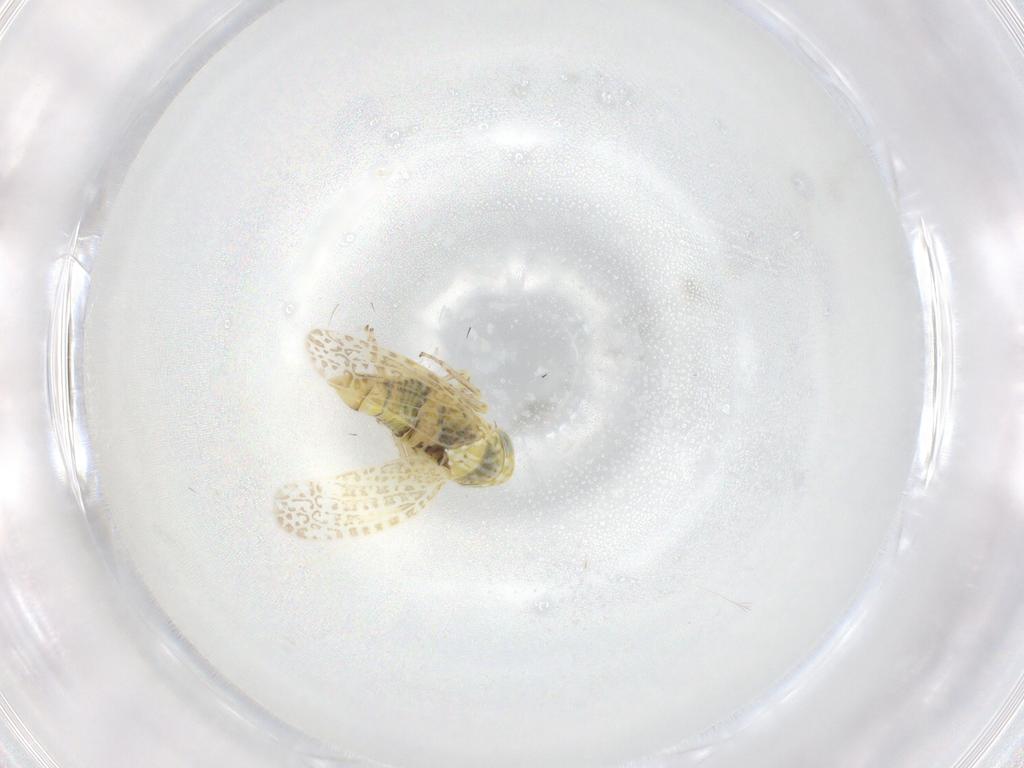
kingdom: Animalia
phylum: Arthropoda
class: Insecta
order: Hemiptera
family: Cicadellidae
